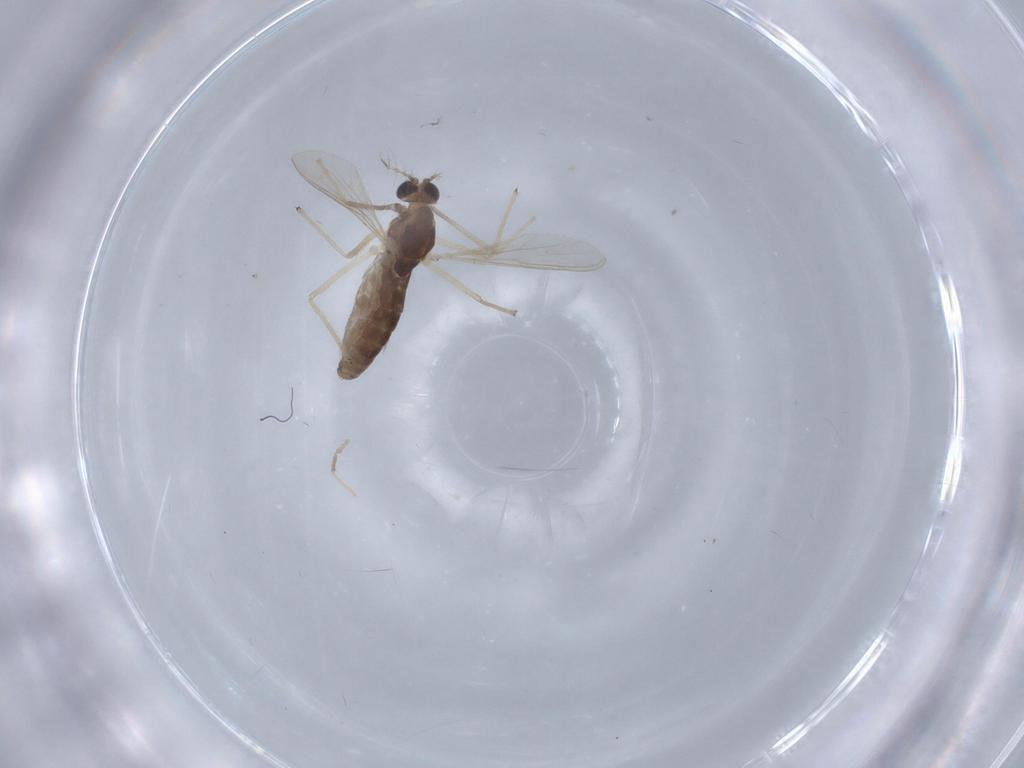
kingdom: Animalia
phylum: Arthropoda
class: Insecta
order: Diptera
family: Chironomidae
